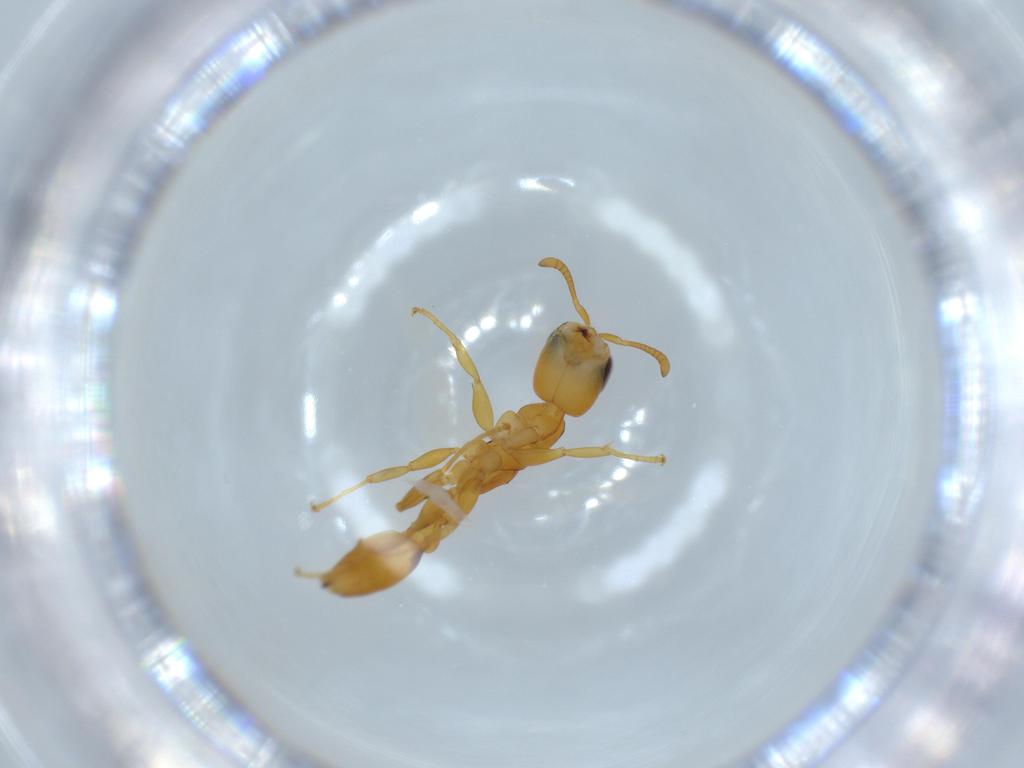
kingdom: Animalia
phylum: Arthropoda
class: Insecta
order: Hymenoptera
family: Formicidae
